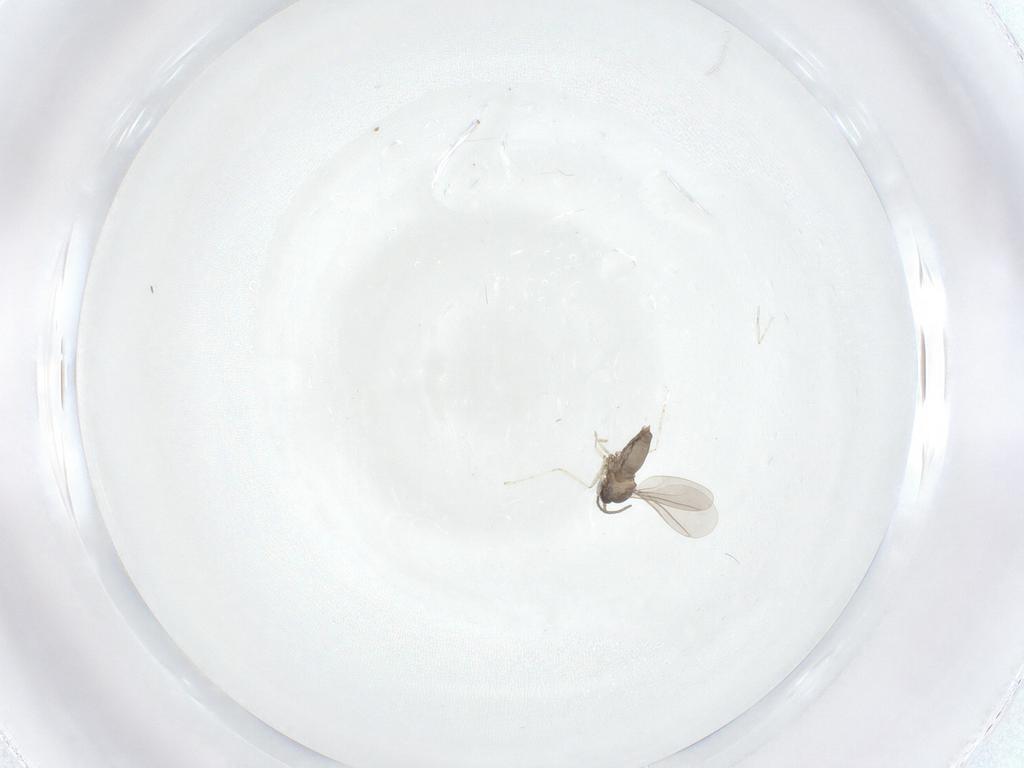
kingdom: Animalia
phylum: Arthropoda
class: Insecta
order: Diptera
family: Cecidomyiidae
